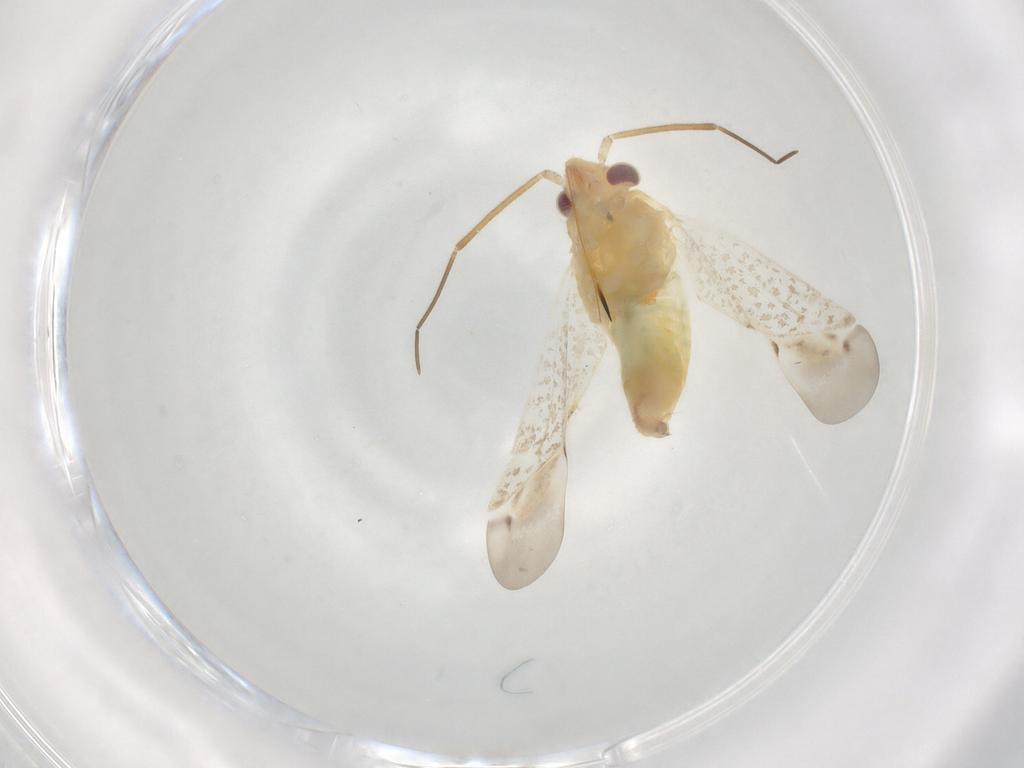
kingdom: Animalia
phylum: Arthropoda
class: Insecta
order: Hemiptera
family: Miridae
